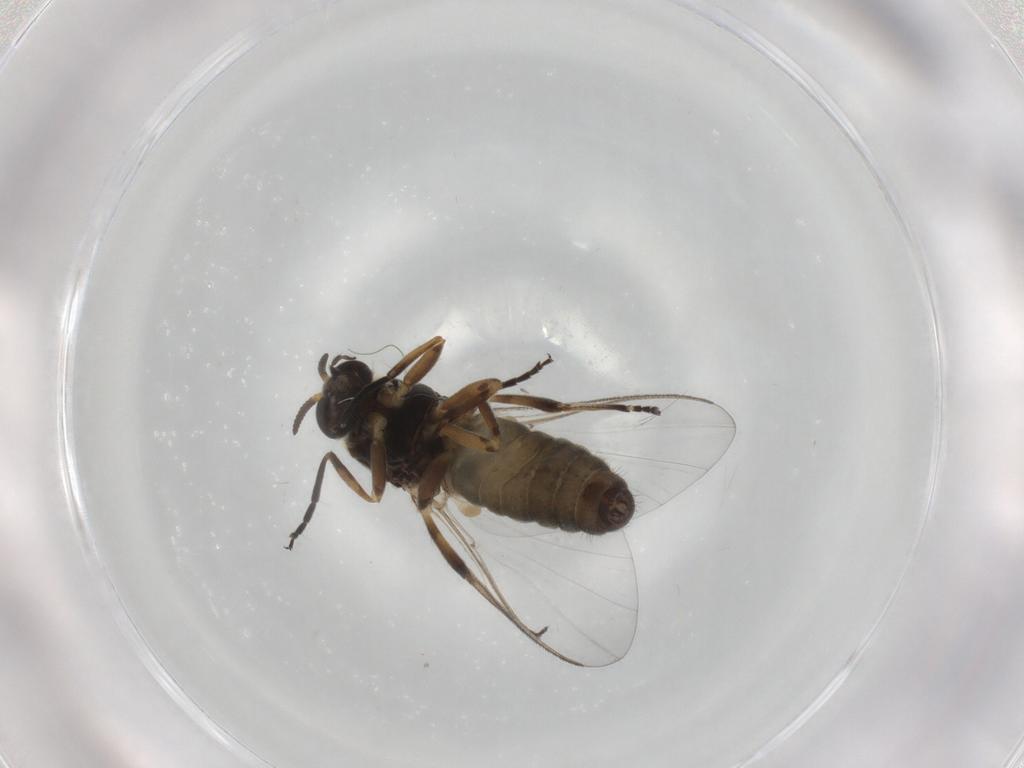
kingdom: Animalia
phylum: Arthropoda
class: Insecta
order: Diptera
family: Simuliidae
